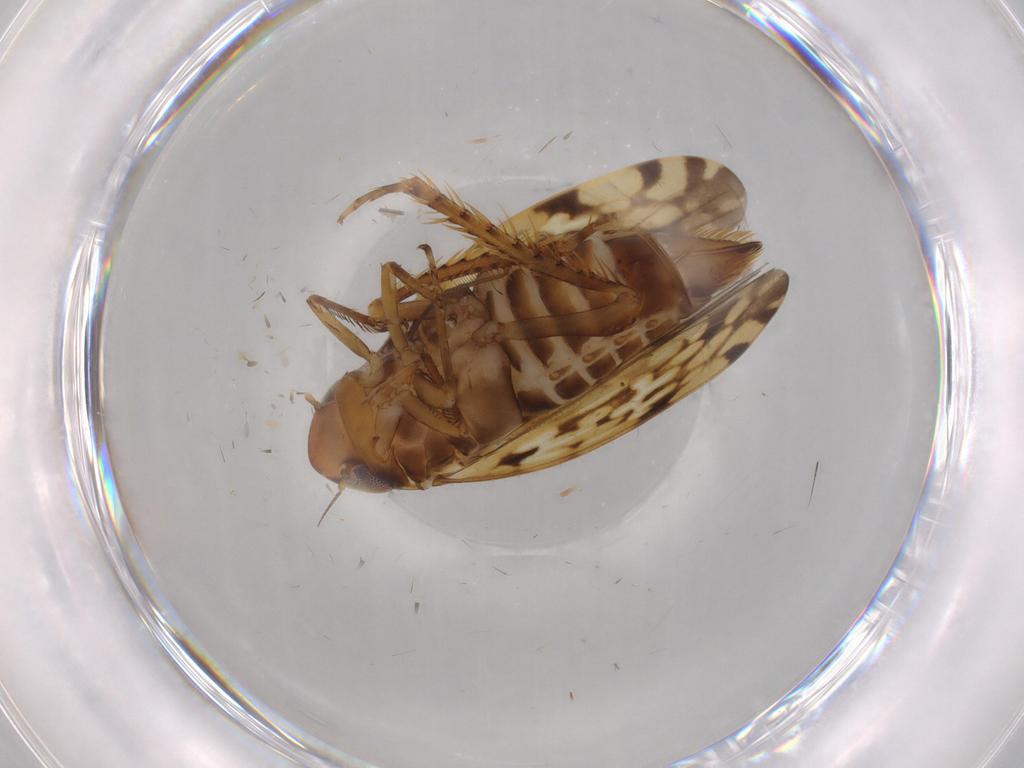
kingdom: Animalia
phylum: Arthropoda
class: Insecta
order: Hemiptera
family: Cicadellidae
